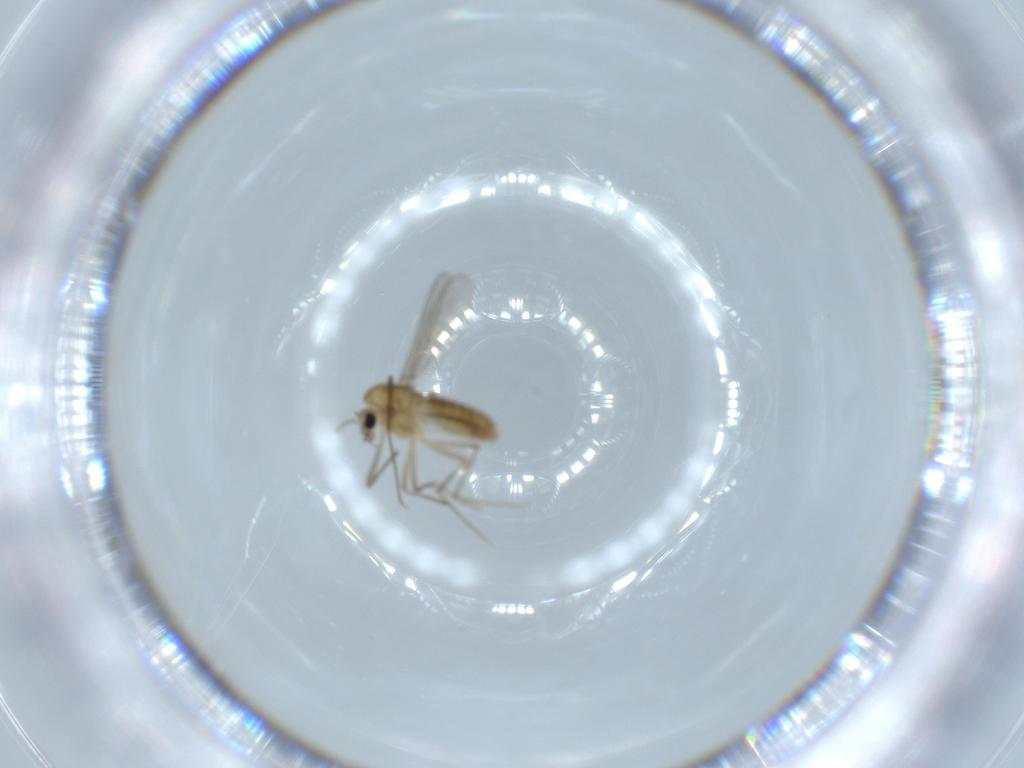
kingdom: Animalia
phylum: Arthropoda
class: Insecta
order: Diptera
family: Chironomidae
